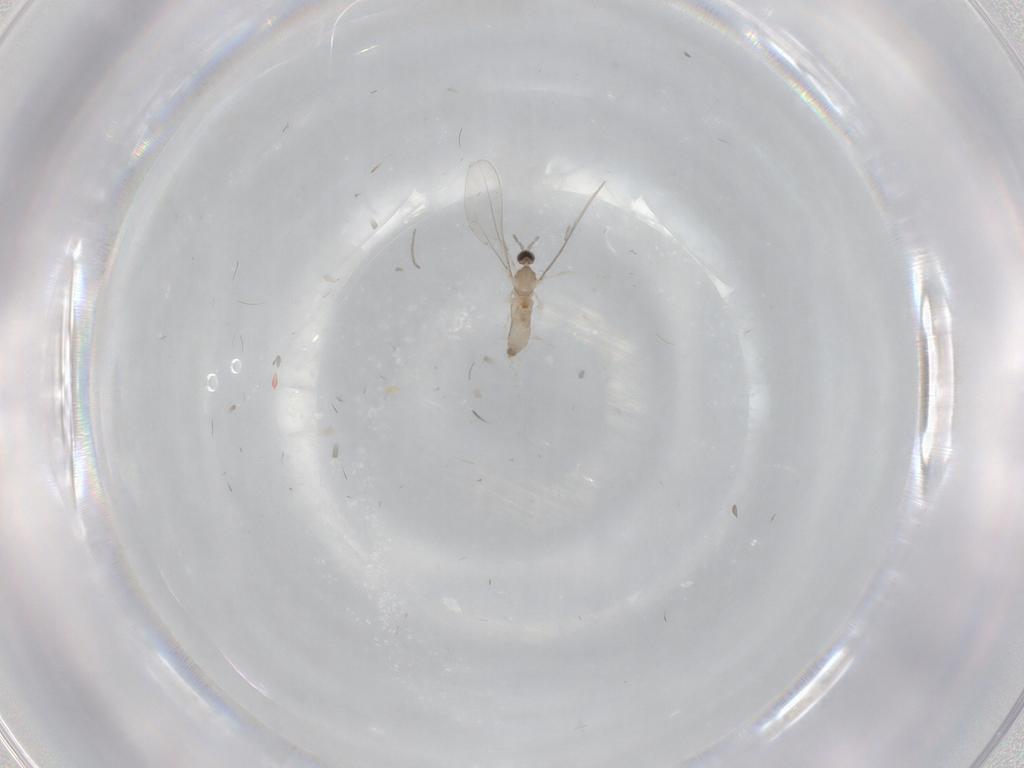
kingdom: Animalia
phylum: Arthropoda
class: Insecta
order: Diptera
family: Cecidomyiidae
